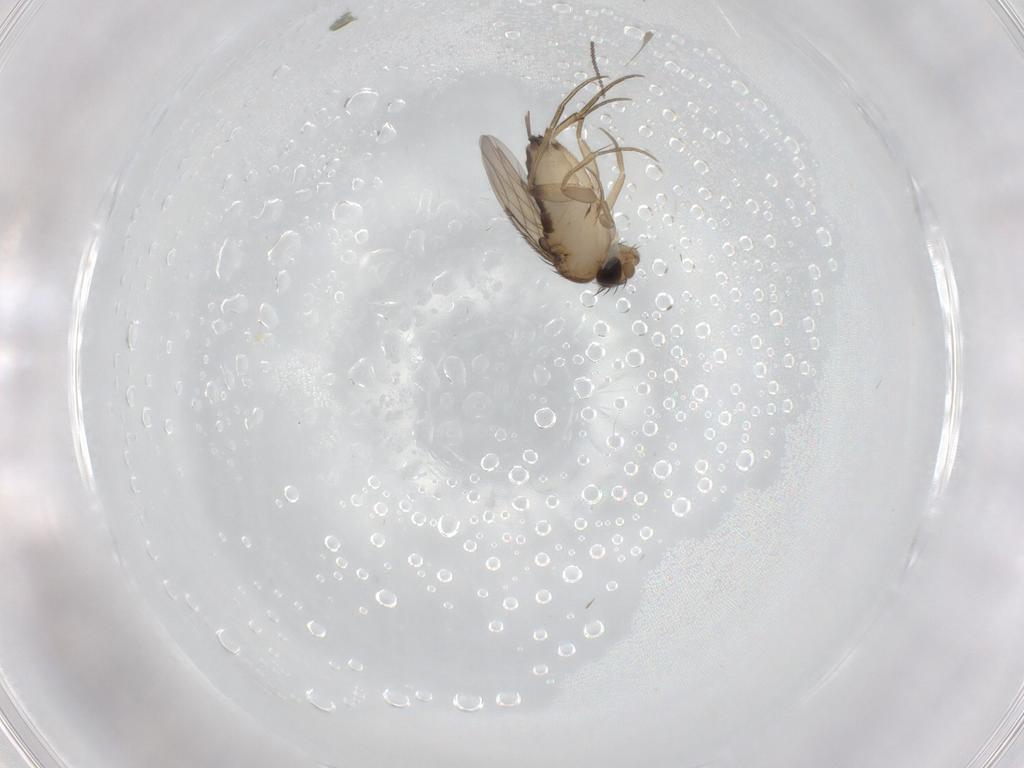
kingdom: Animalia
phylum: Arthropoda
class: Insecta
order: Diptera
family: Phoridae
